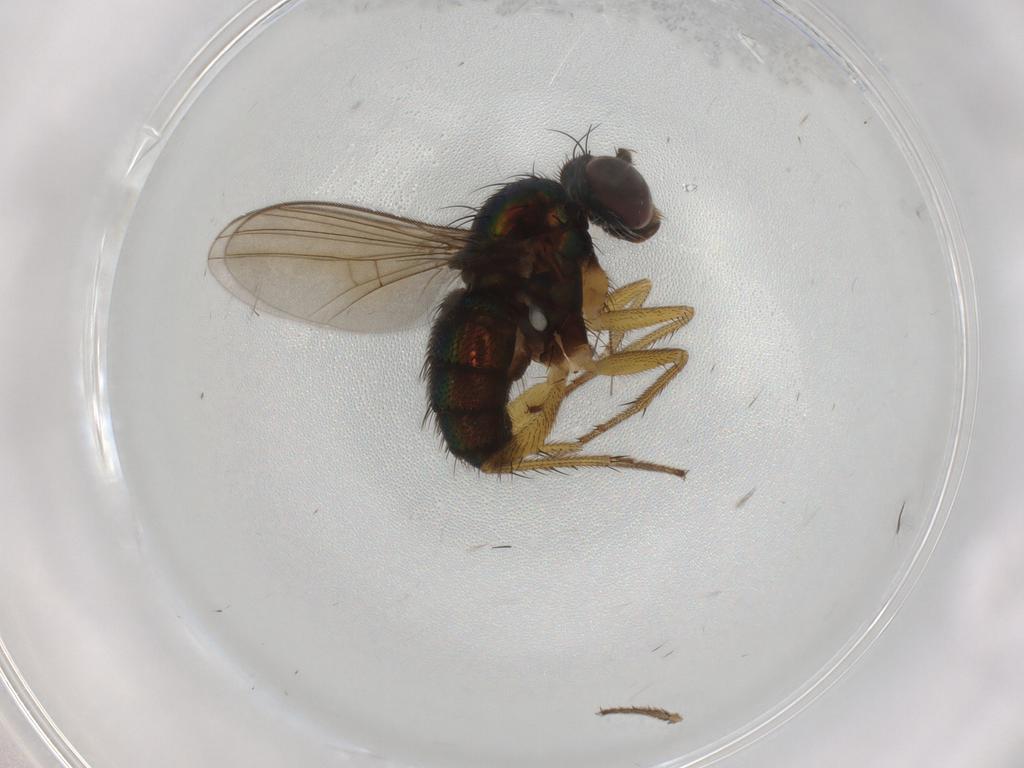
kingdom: Animalia
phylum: Arthropoda
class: Insecta
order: Diptera
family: Dolichopodidae
